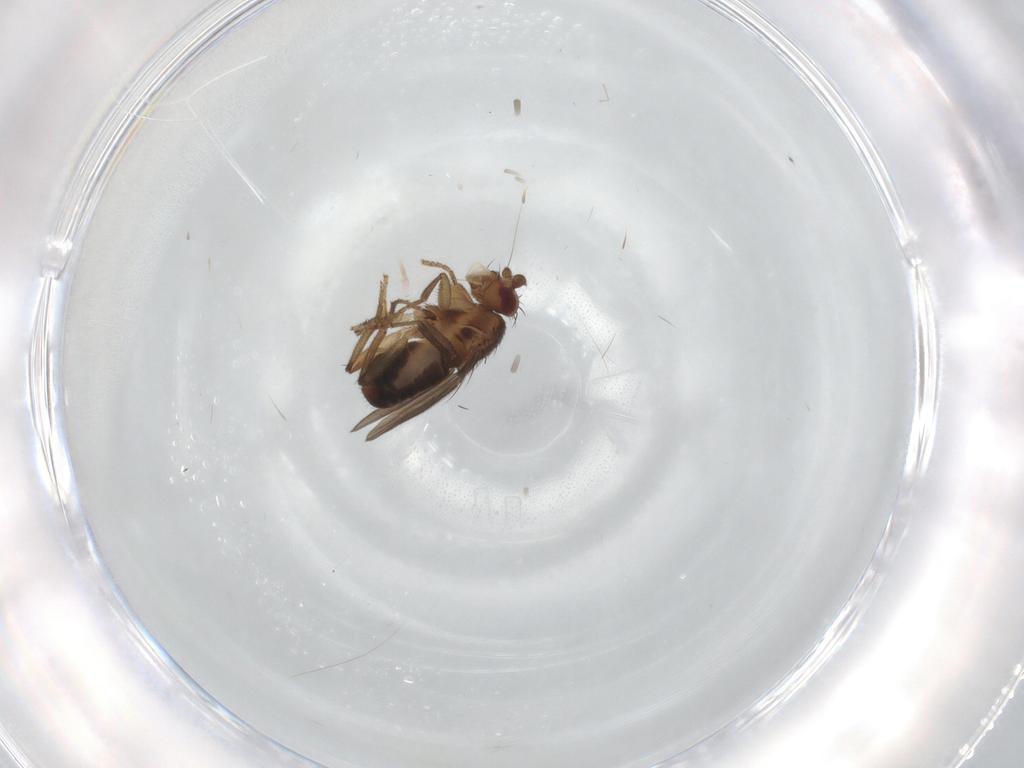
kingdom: Animalia
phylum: Arthropoda
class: Insecta
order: Diptera
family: Sphaeroceridae
